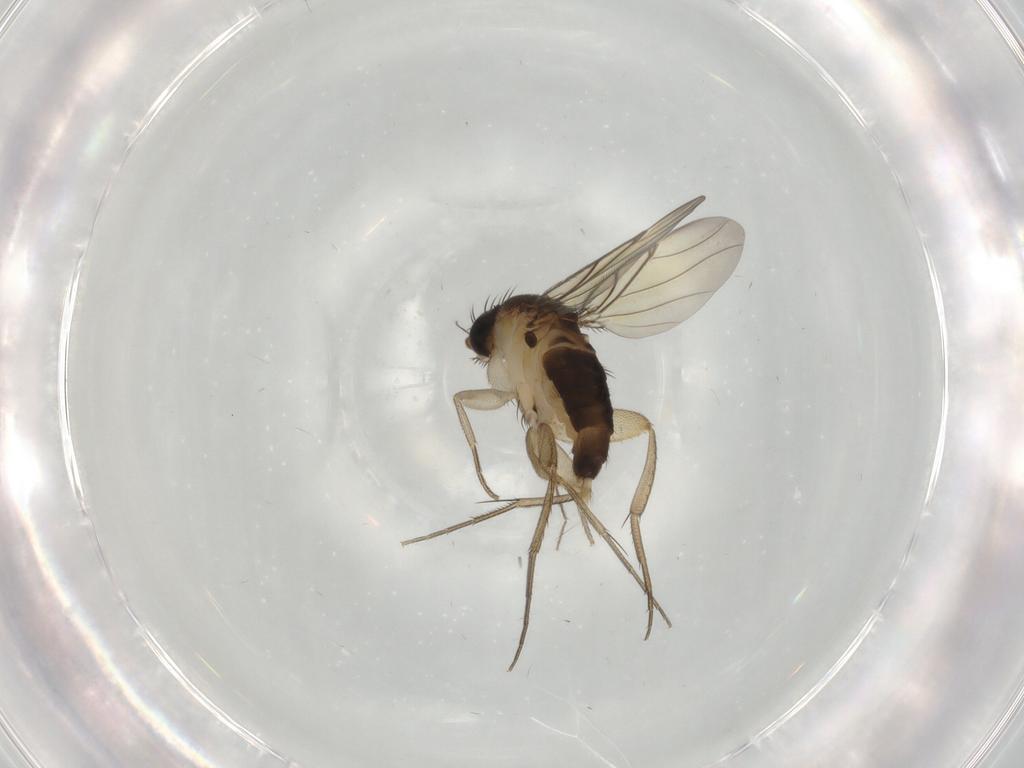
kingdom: Animalia
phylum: Arthropoda
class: Insecta
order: Diptera
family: Chironomidae
